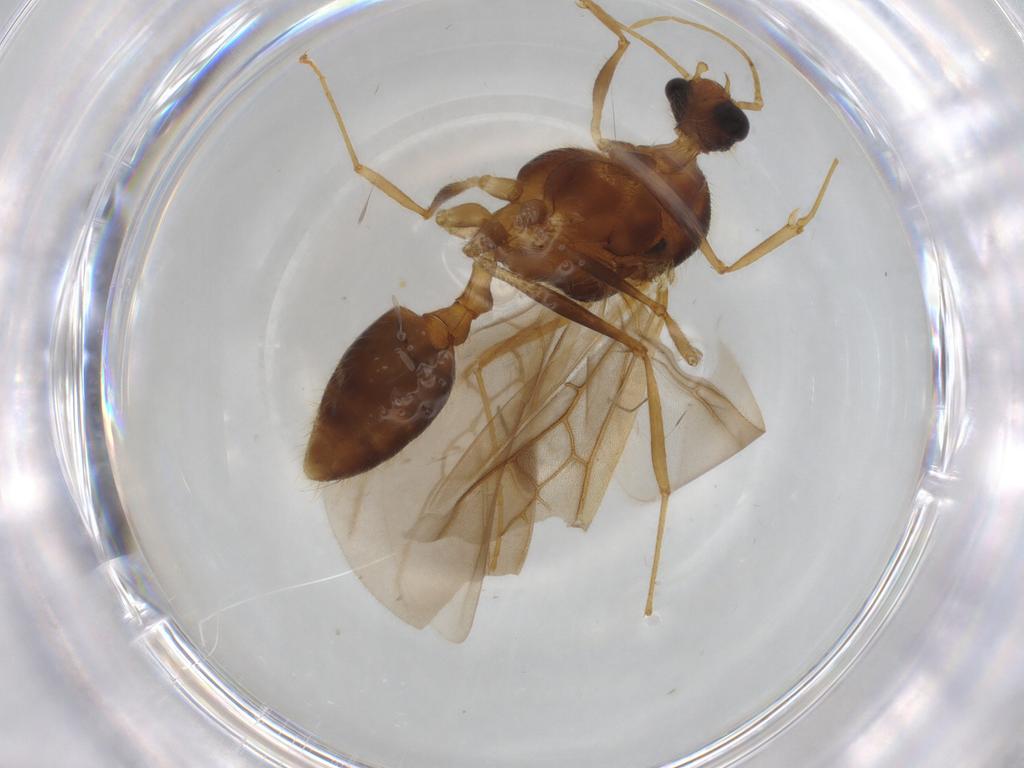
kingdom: Animalia
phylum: Arthropoda
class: Insecta
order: Hymenoptera
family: Formicidae
